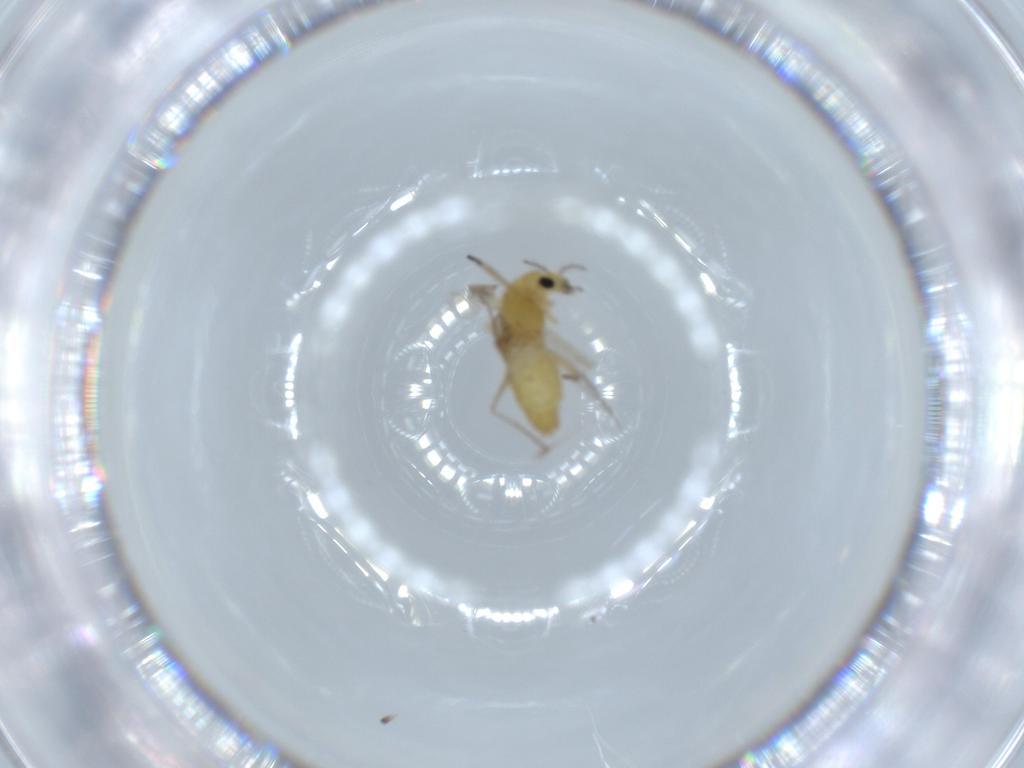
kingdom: Animalia
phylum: Arthropoda
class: Insecta
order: Diptera
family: Chironomidae
